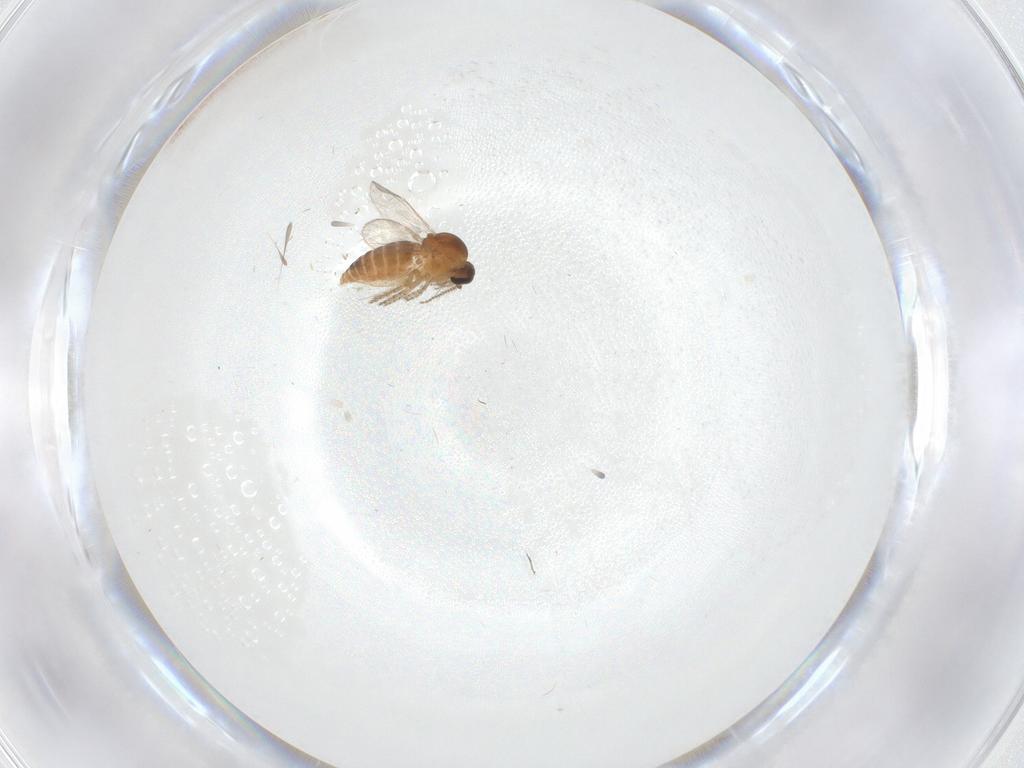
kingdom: Animalia
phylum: Arthropoda
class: Insecta
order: Diptera
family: Ceratopogonidae
